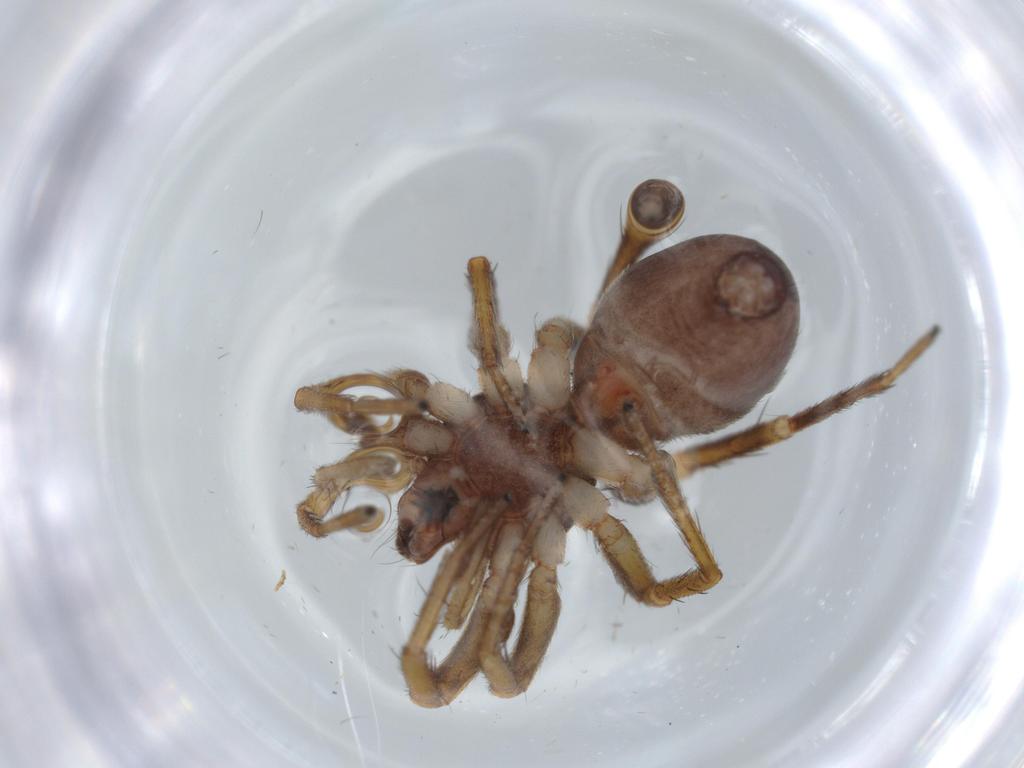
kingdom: Animalia
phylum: Arthropoda
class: Arachnida
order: Araneae
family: Corinnidae
